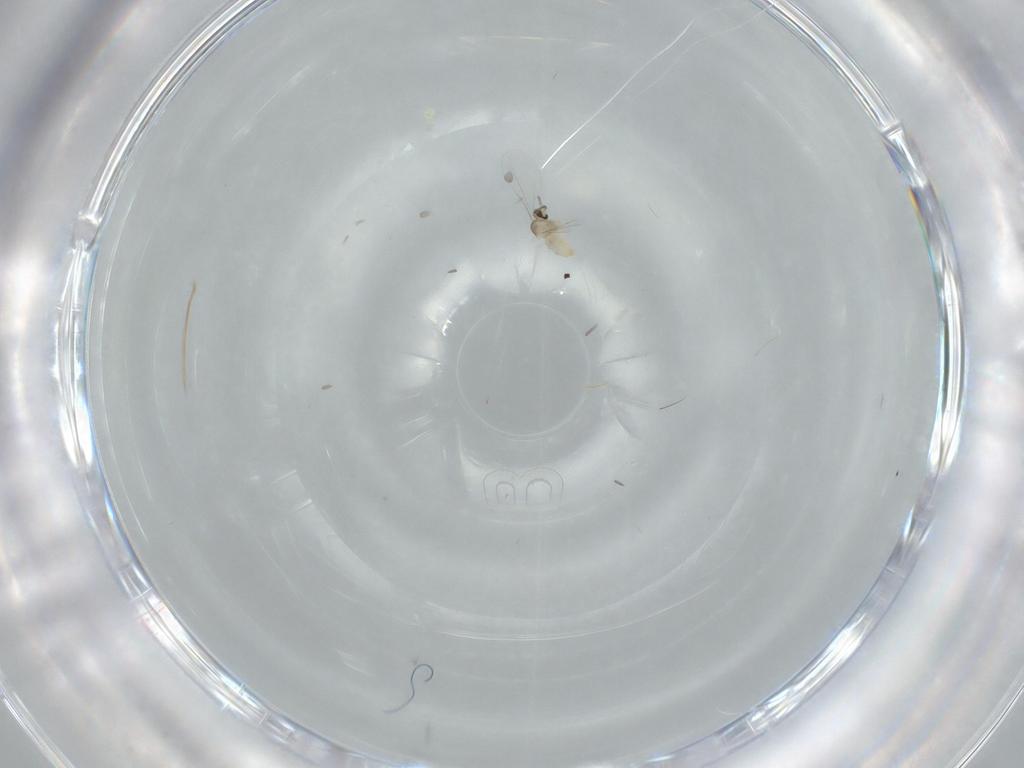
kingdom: Animalia
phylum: Arthropoda
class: Insecta
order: Diptera
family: Cecidomyiidae
